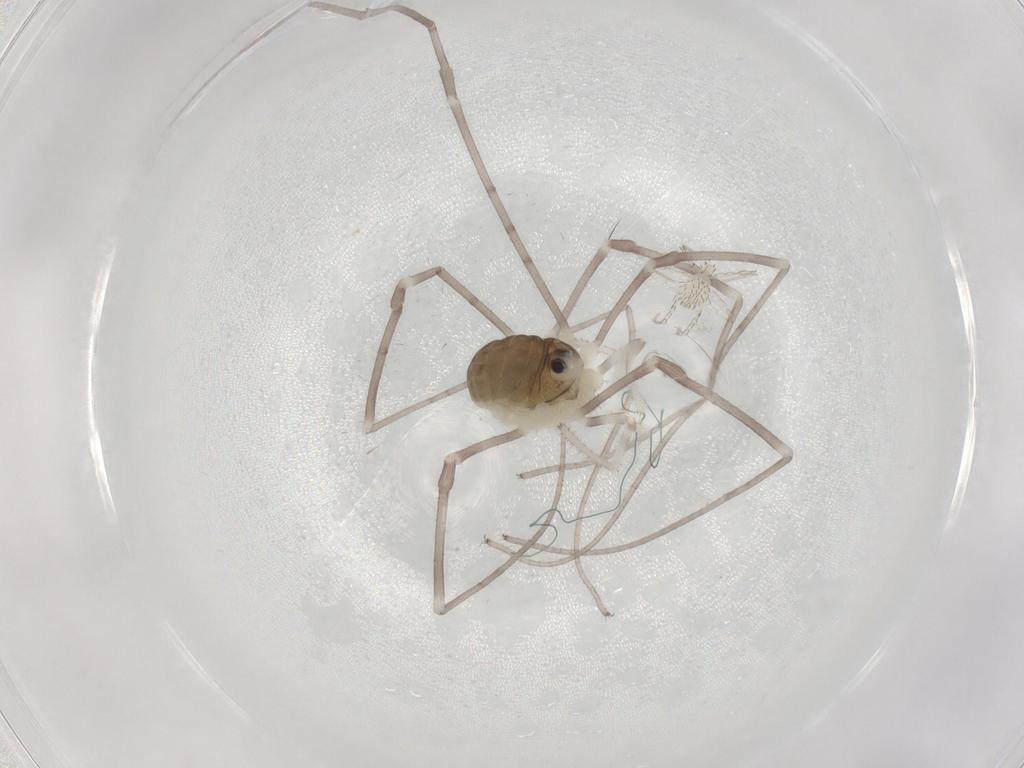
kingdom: Animalia
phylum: Arthropoda
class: Arachnida
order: Opiliones
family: Sclerosomatidae
